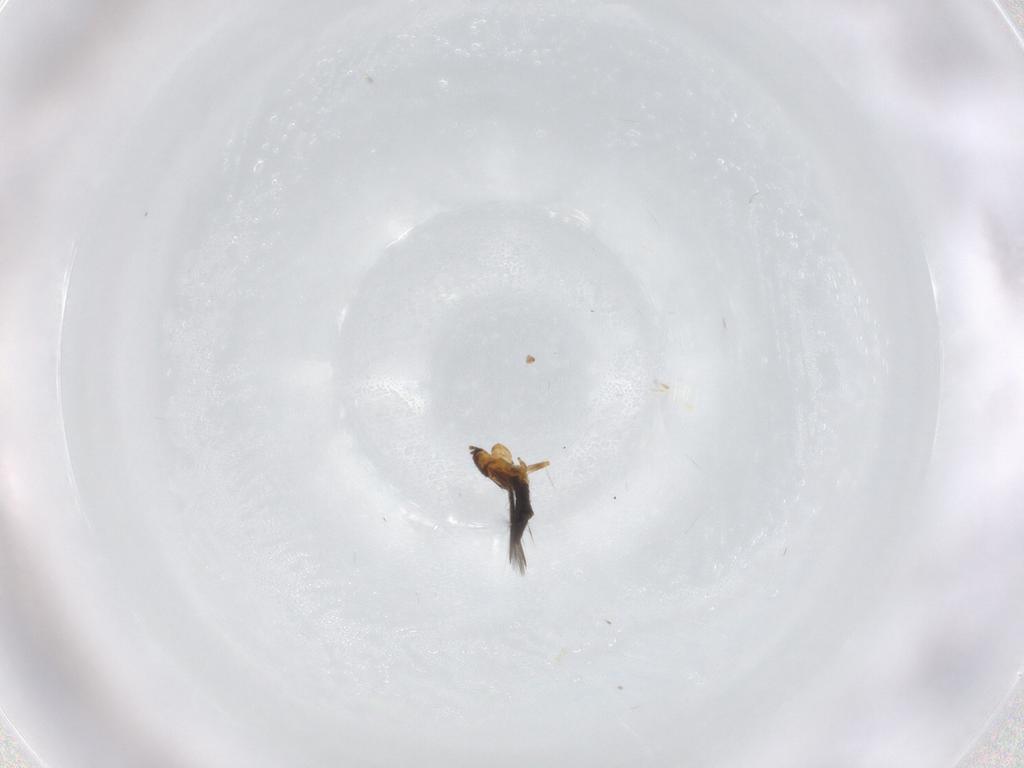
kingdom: Animalia
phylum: Arthropoda
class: Insecta
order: Thysanoptera
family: Thripidae
